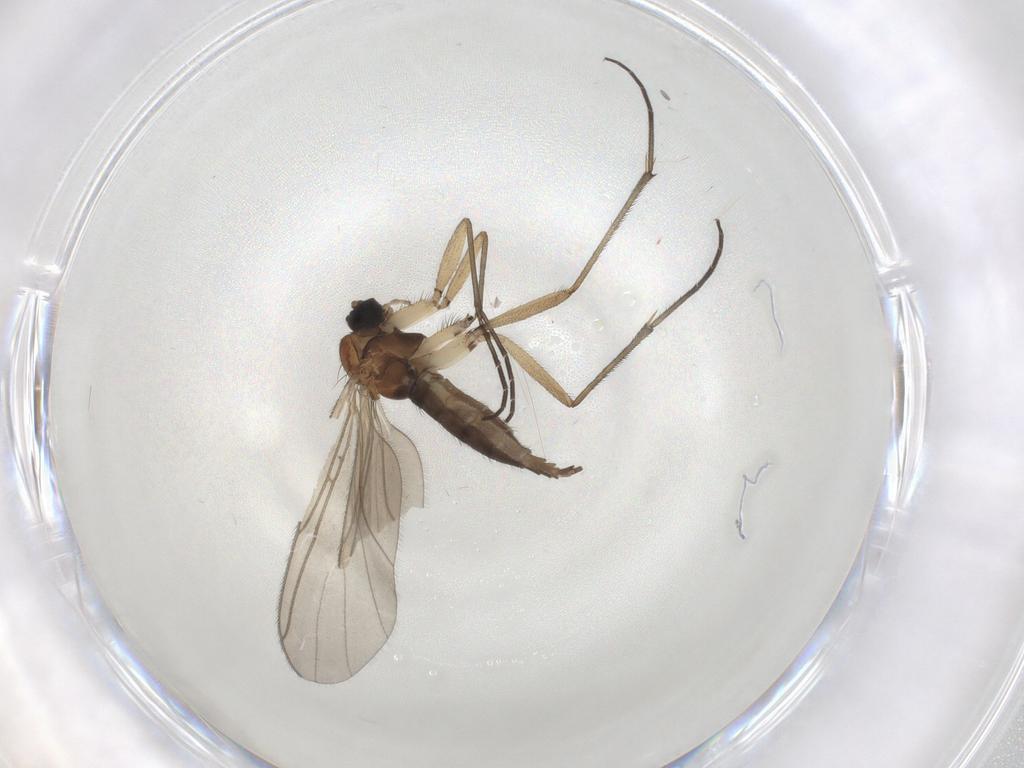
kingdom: Animalia
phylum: Arthropoda
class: Insecta
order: Diptera
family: Sciaridae
